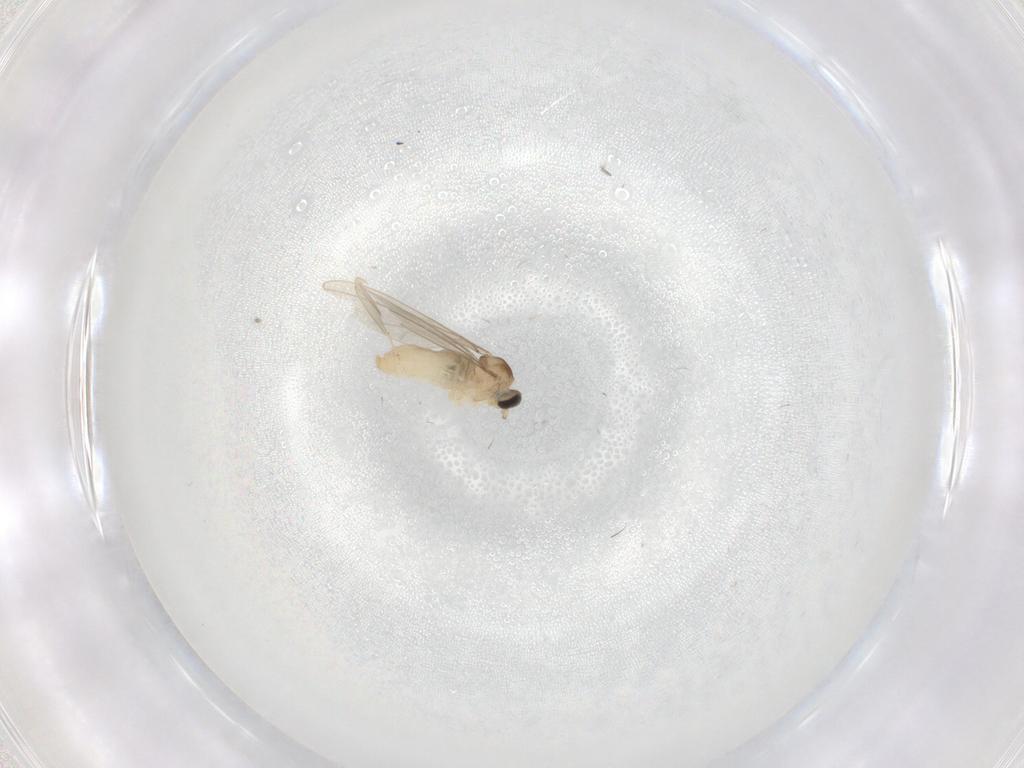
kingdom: Animalia
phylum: Arthropoda
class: Insecta
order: Diptera
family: Cecidomyiidae
